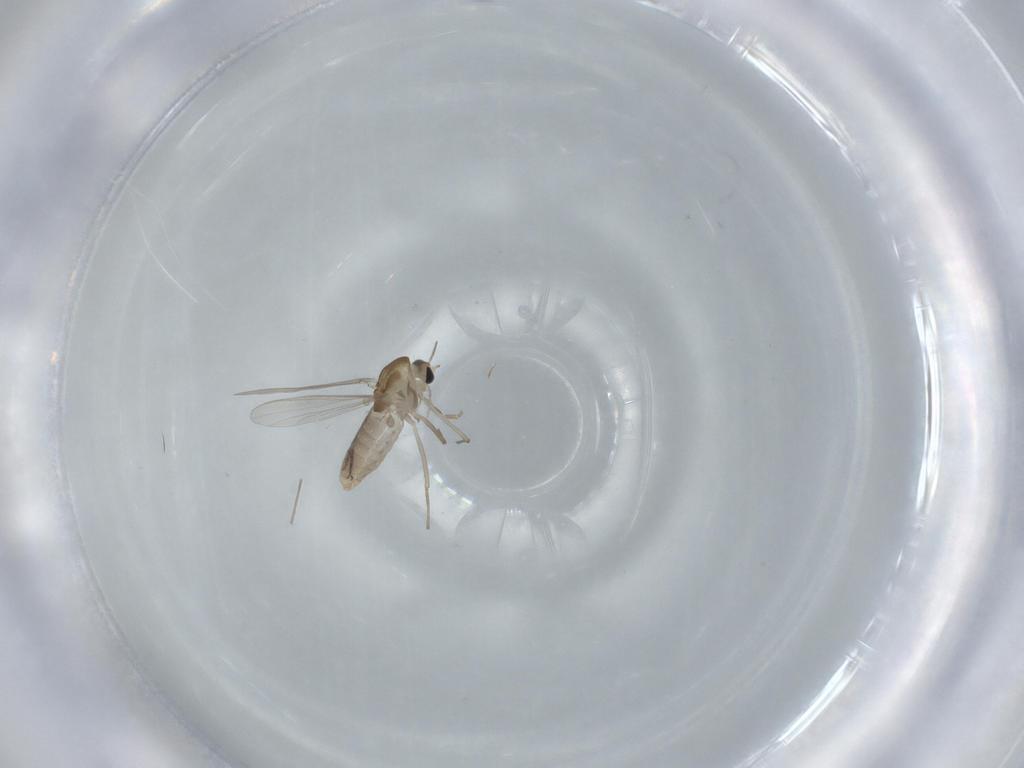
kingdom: Animalia
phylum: Arthropoda
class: Insecta
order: Diptera
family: Chironomidae
